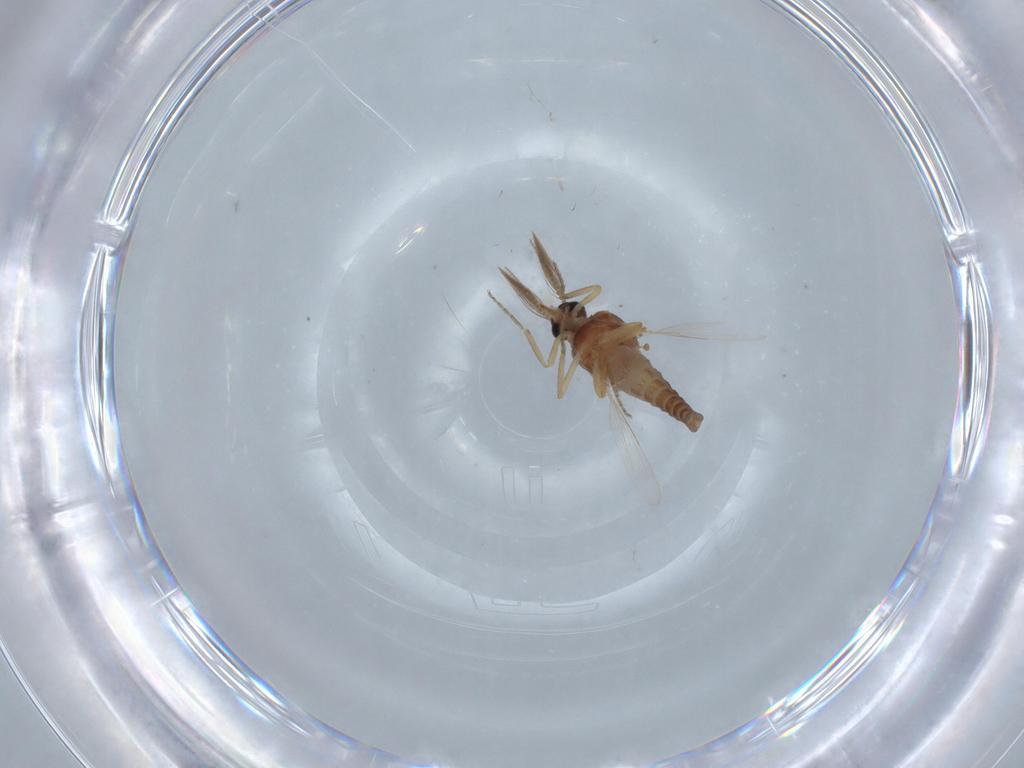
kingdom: Animalia
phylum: Arthropoda
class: Insecta
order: Diptera
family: Ceratopogonidae
